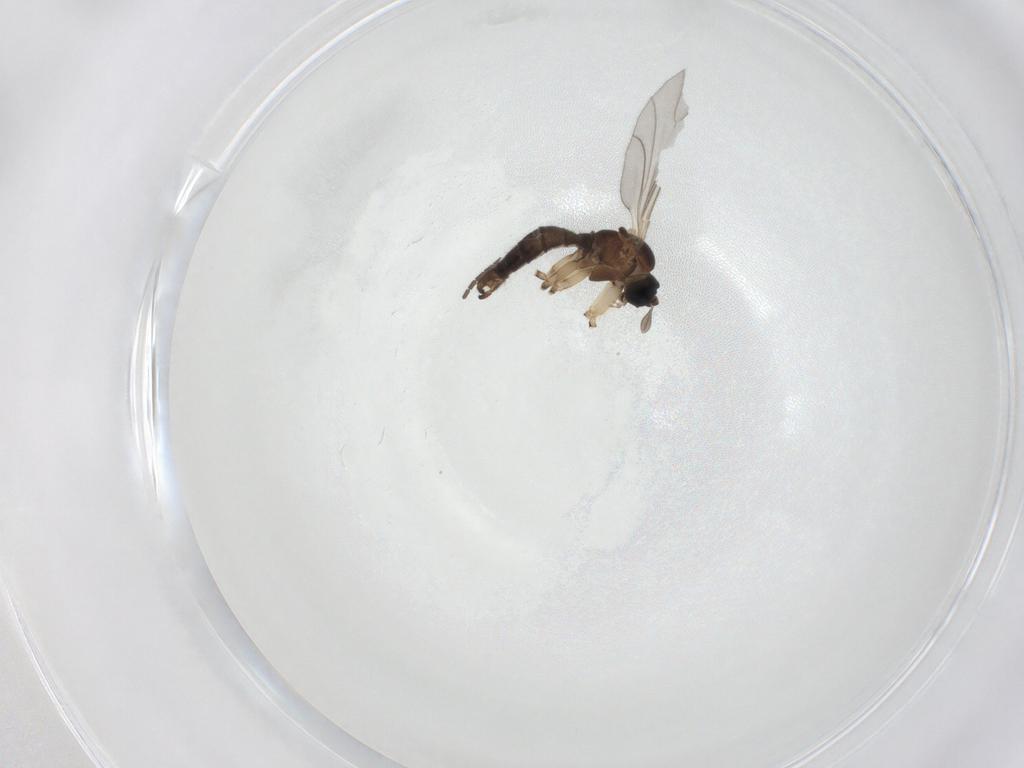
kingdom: Animalia
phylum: Arthropoda
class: Insecta
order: Diptera
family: Sciaridae
